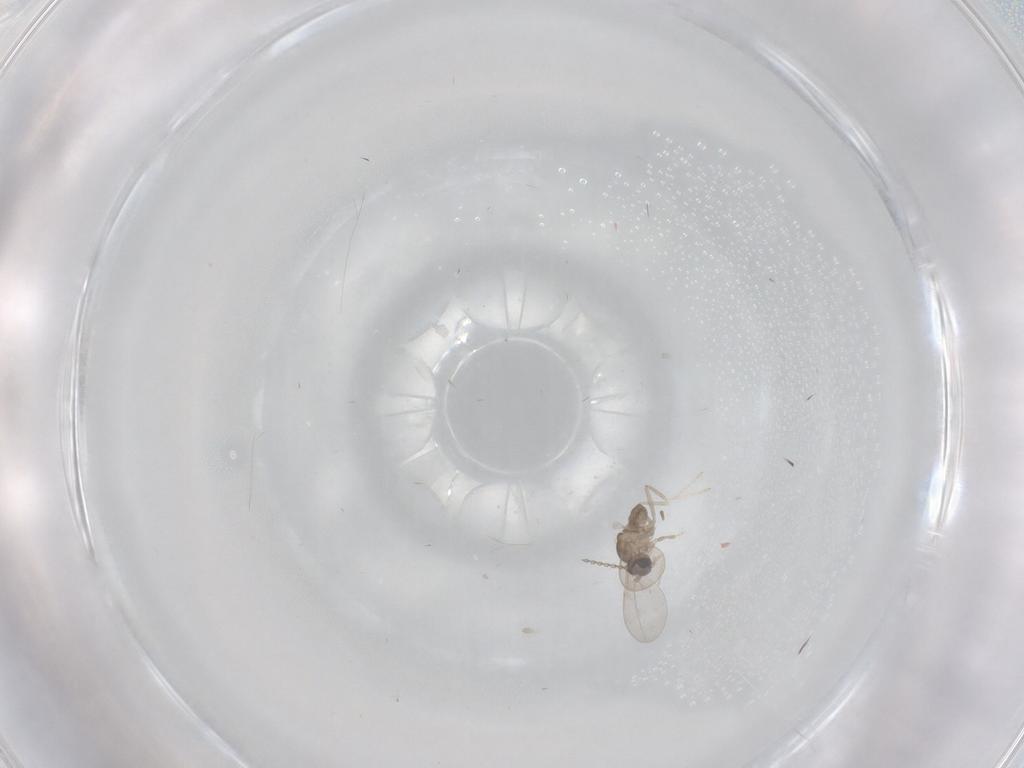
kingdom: Animalia
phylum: Arthropoda
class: Insecta
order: Diptera
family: Cecidomyiidae
